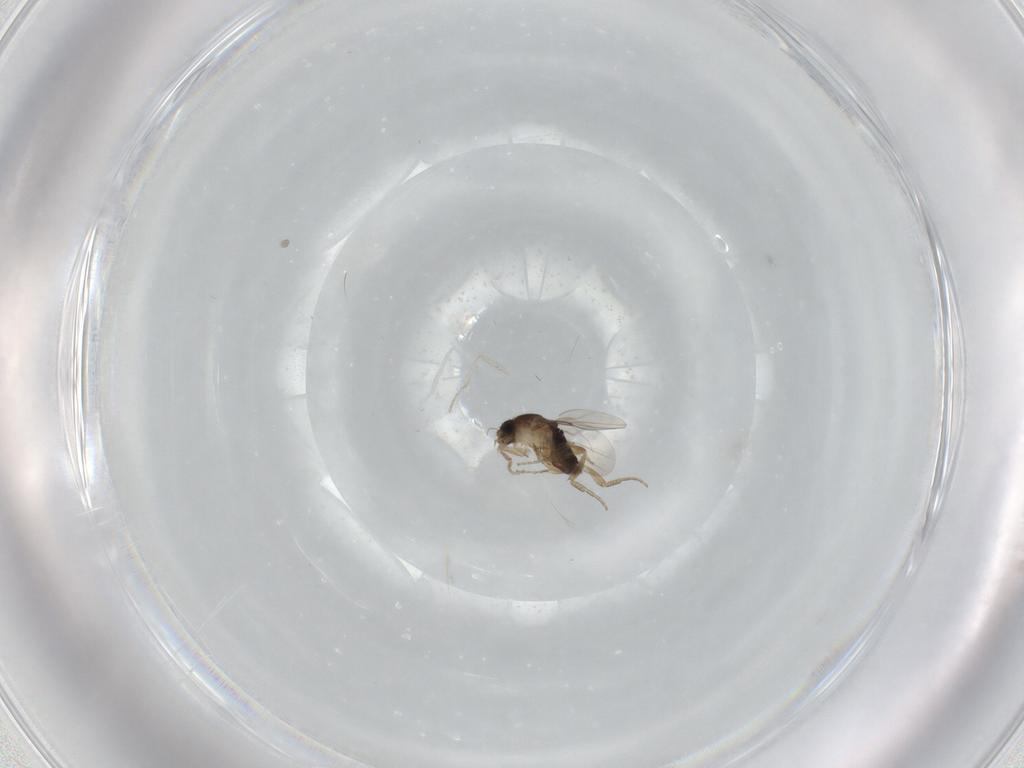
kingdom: Animalia
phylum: Arthropoda
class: Insecta
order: Diptera
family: Phoridae
